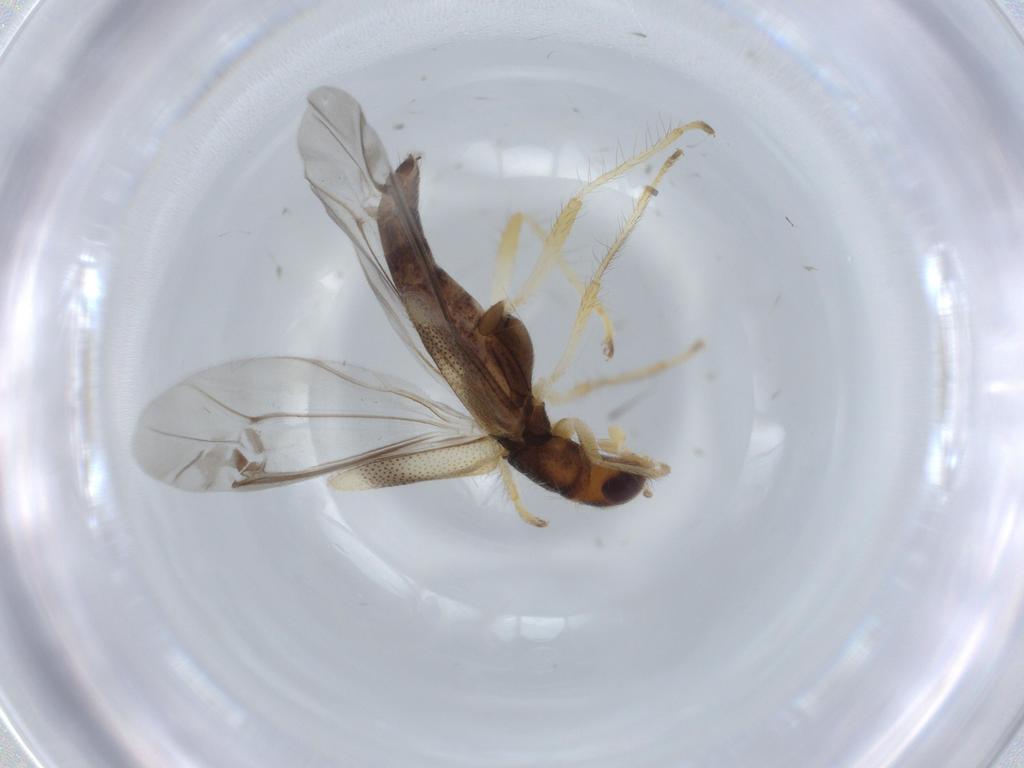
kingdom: Animalia
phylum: Arthropoda
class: Insecta
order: Coleoptera
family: Cleridae
